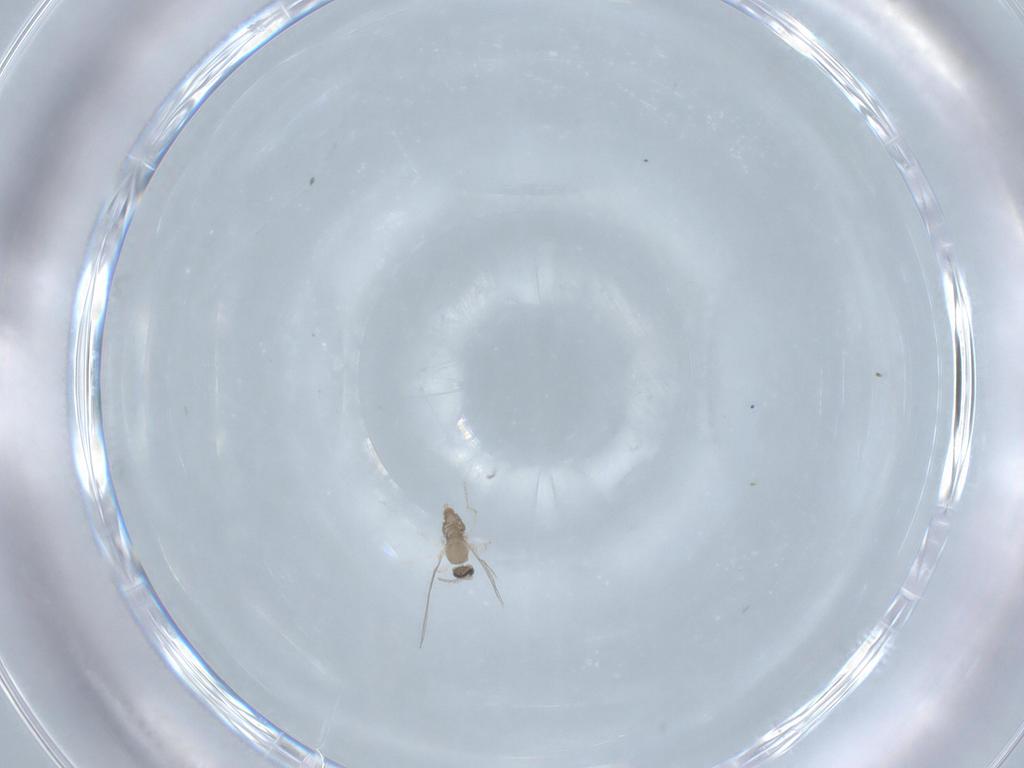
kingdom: Animalia
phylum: Arthropoda
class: Insecta
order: Diptera
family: Cecidomyiidae
